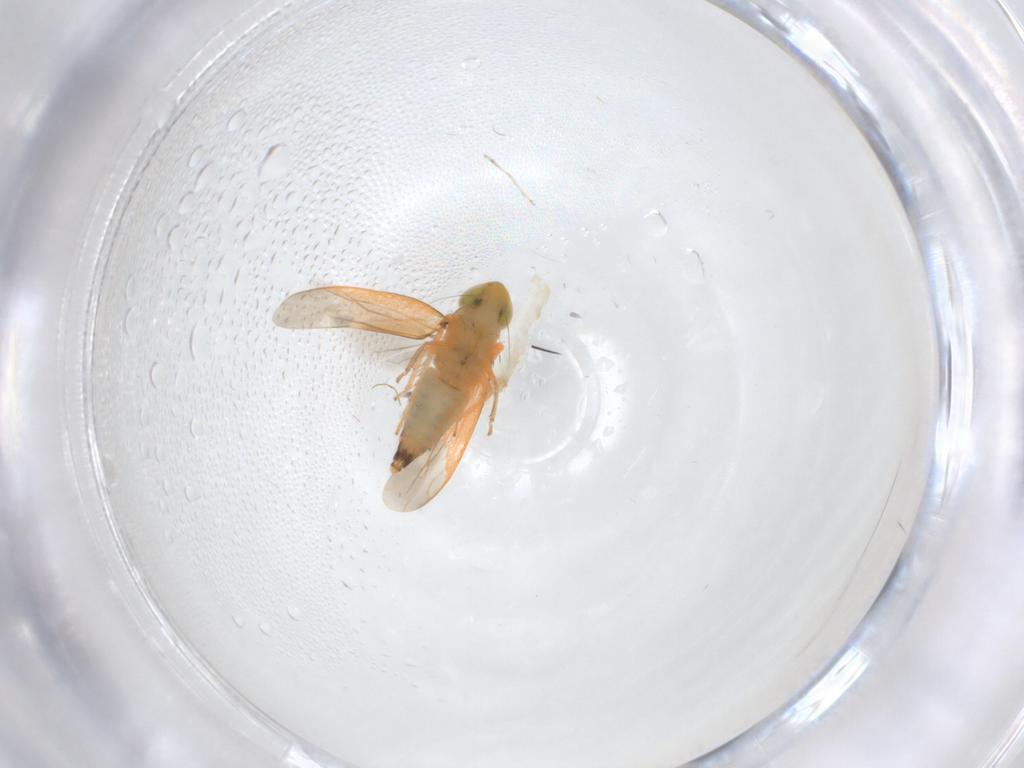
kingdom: Animalia
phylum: Arthropoda
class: Insecta
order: Hemiptera
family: Cicadellidae
